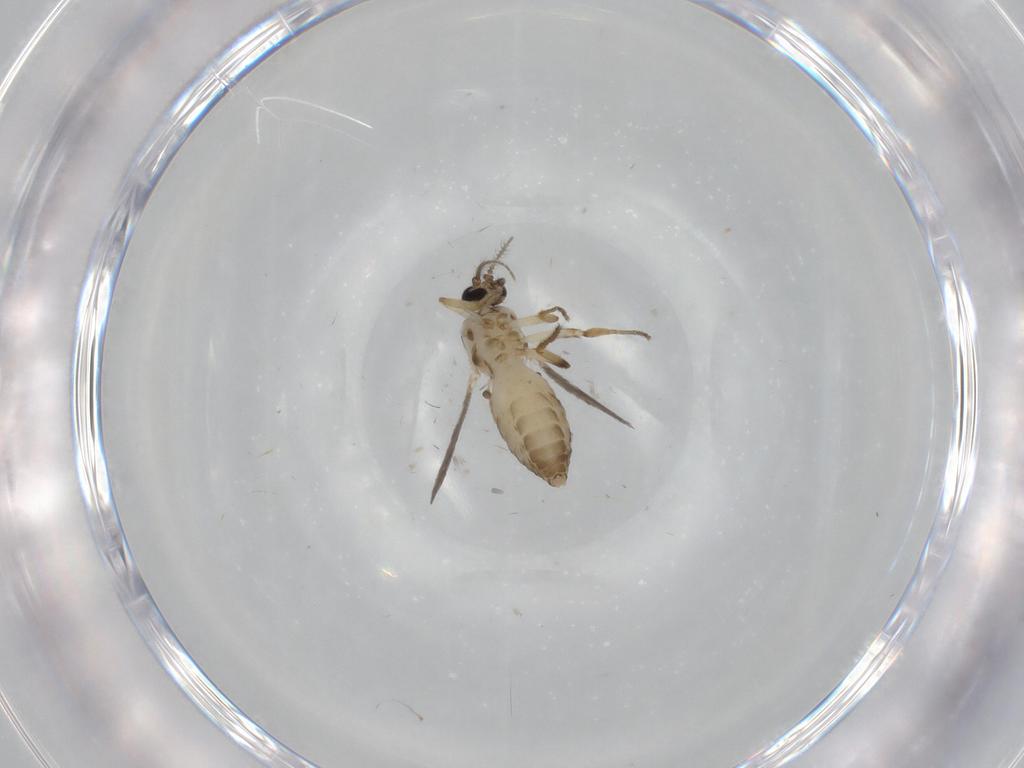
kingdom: Animalia
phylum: Arthropoda
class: Insecta
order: Diptera
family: Ceratopogonidae
